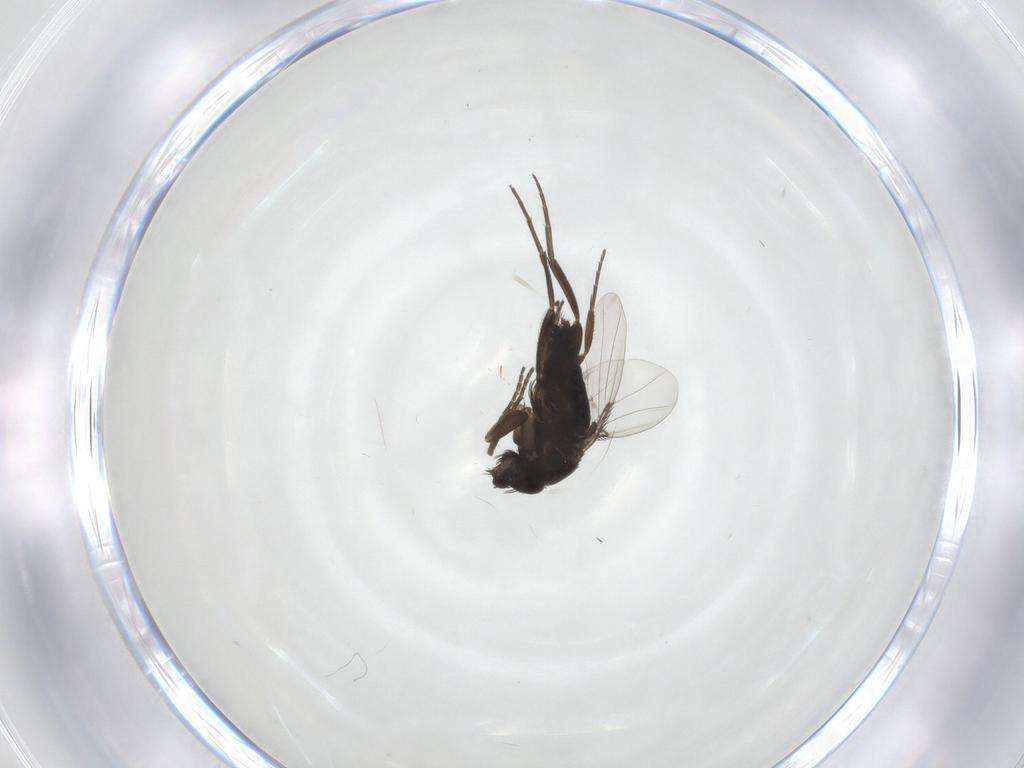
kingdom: Animalia
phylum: Arthropoda
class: Insecta
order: Diptera
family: Phoridae
